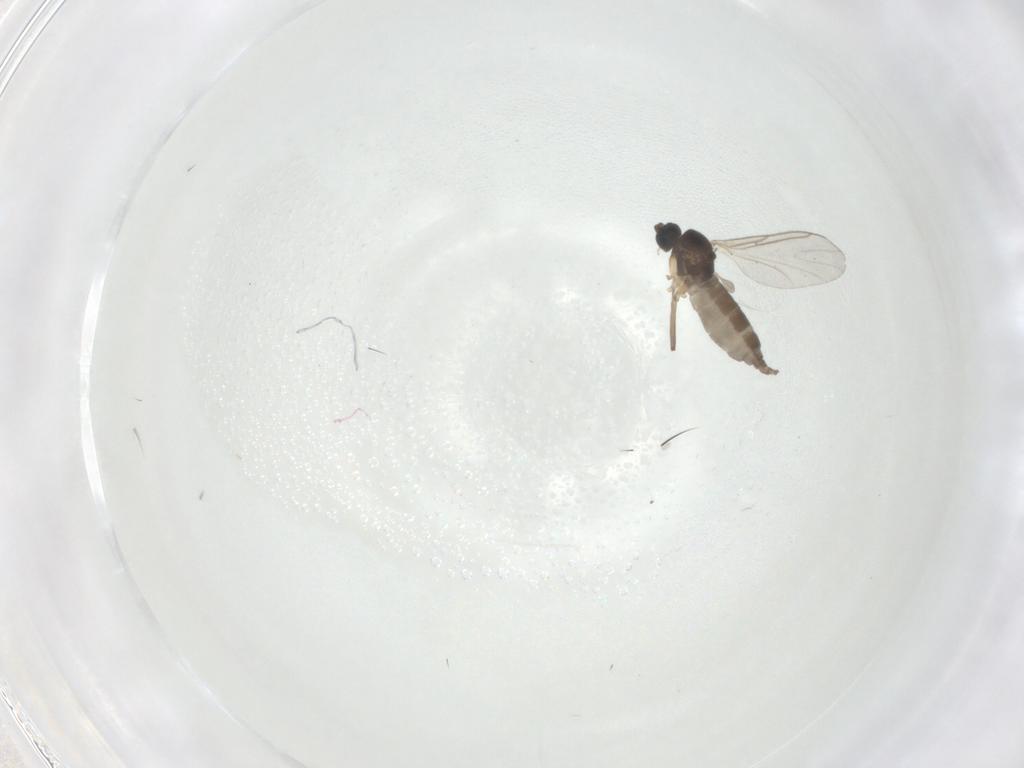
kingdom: Animalia
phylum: Arthropoda
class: Insecta
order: Diptera
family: Sciaridae
